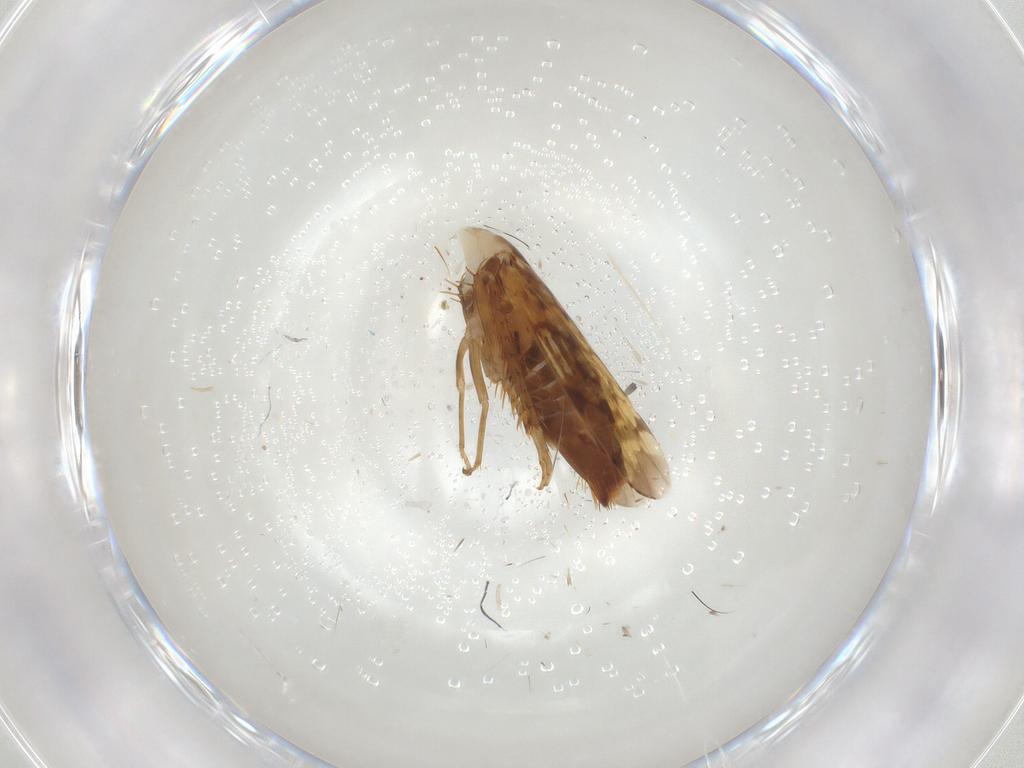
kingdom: Animalia
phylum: Arthropoda
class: Insecta
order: Hemiptera
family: Cicadellidae
